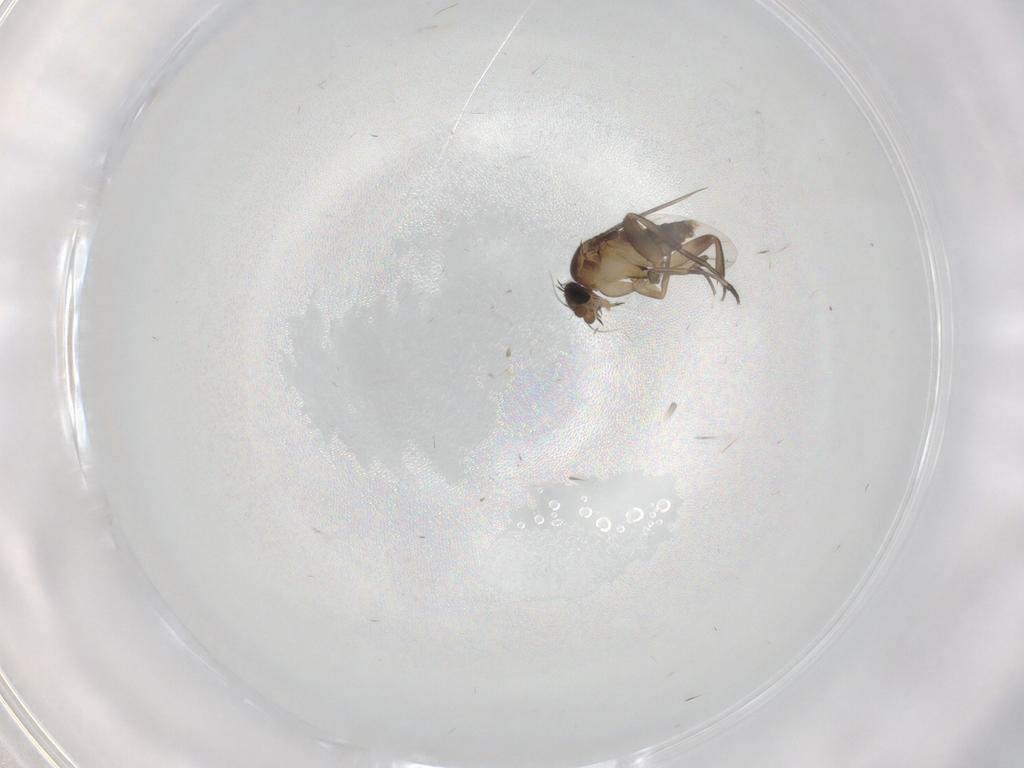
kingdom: Animalia
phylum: Arthropoda
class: Insecta
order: Diptera
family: Phoridae
